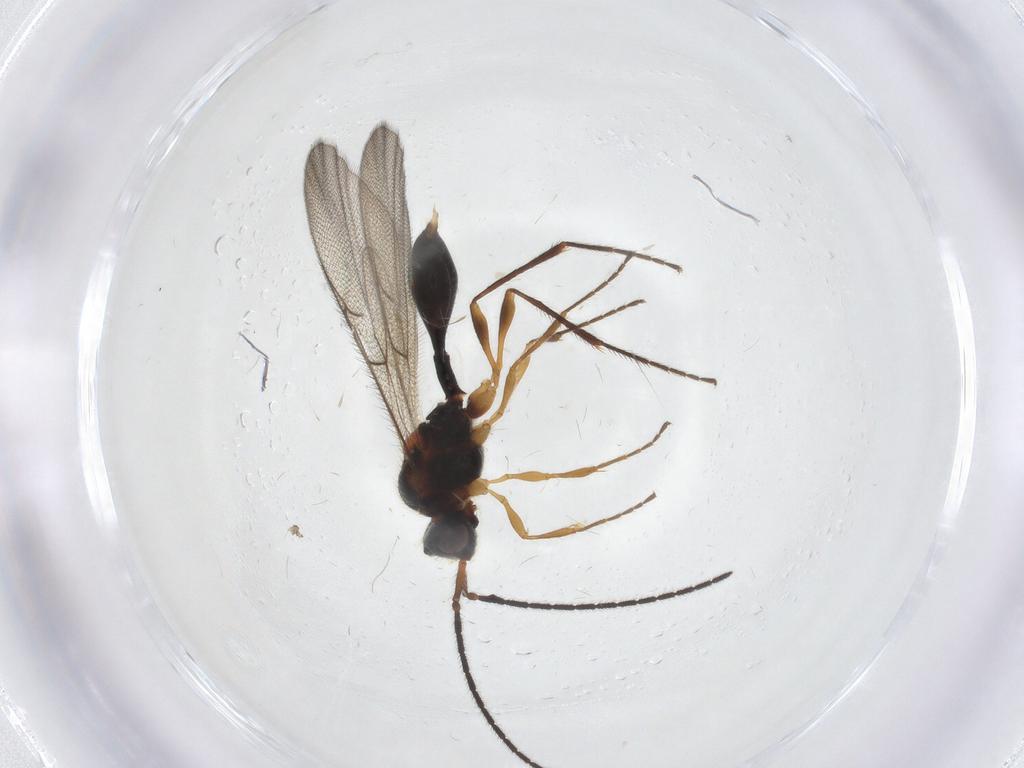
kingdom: Animalia
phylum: Arthropoda
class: Insecta
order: Hymenoptera
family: Diapriidae
